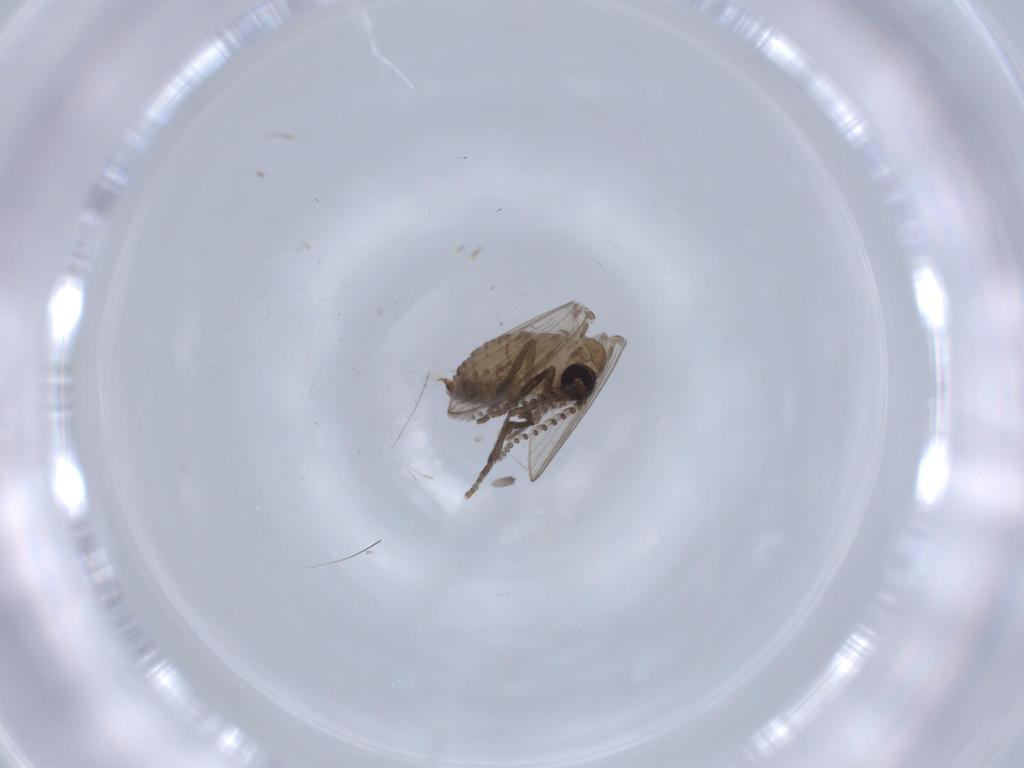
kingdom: Animalia
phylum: Arthropoda
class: Insecta
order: Diptera
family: Psychodidae
